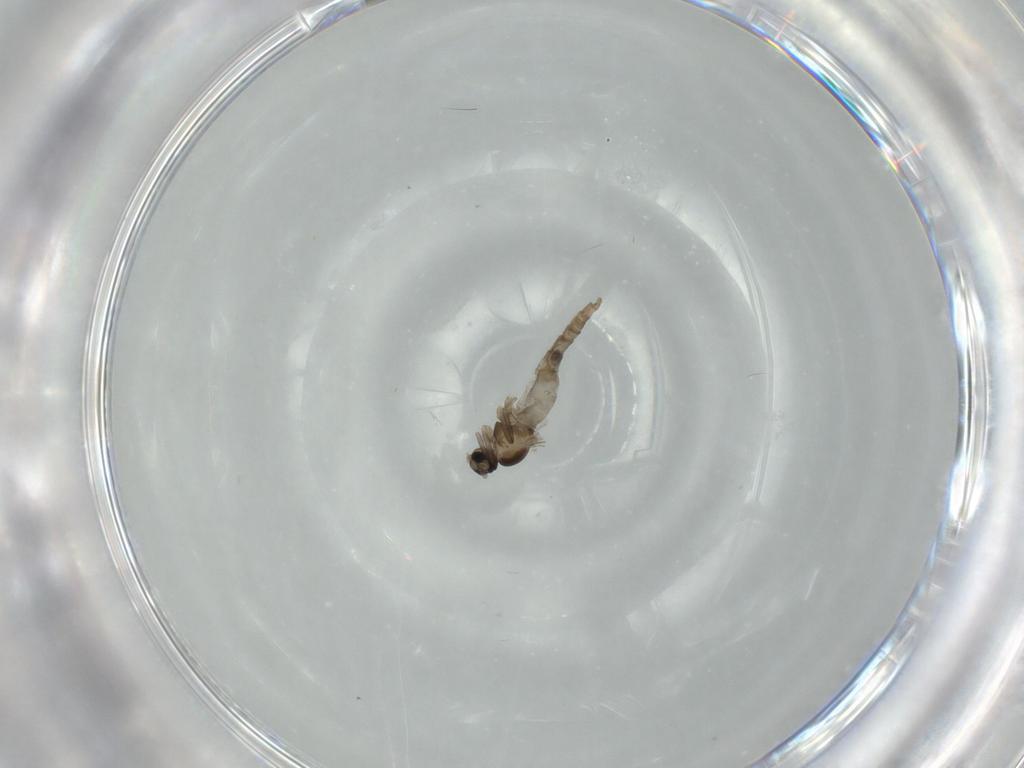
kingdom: Animalia
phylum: Arthropoda
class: Insecta
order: Diptera
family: Cecidomyiidae
